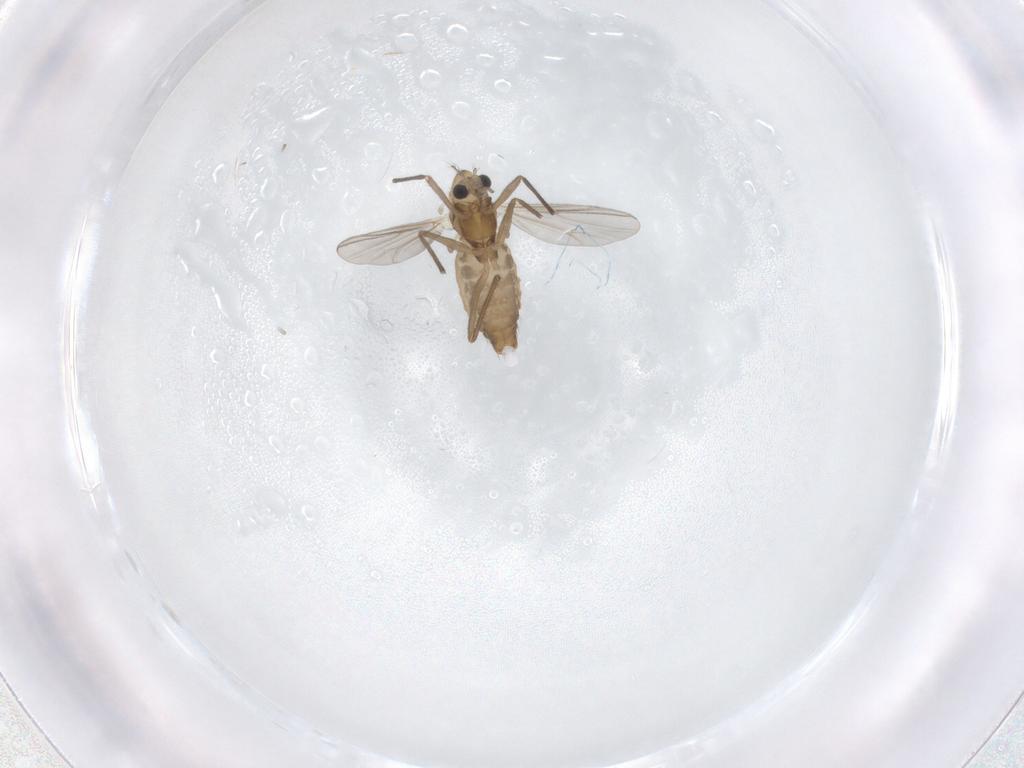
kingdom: Animalia
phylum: Arthropoda
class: Insecta
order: Diptera
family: Chironomidae
